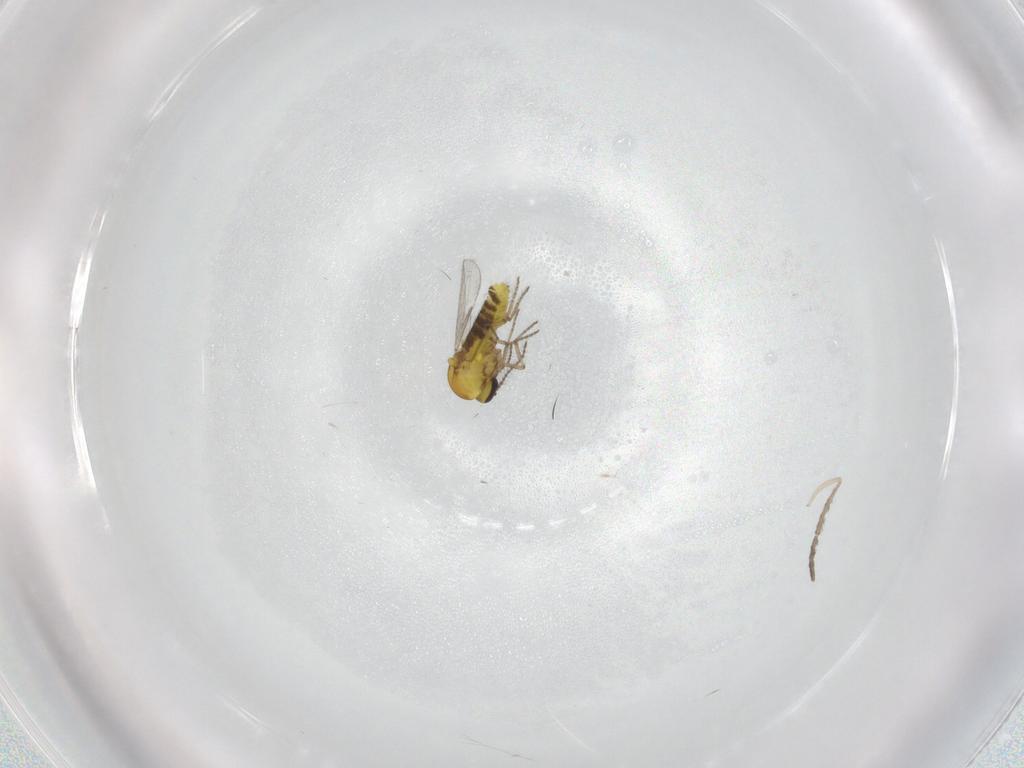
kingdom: Animalia
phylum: Arthropoda
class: Insecta
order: Diptera
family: Ceratopogonidae
